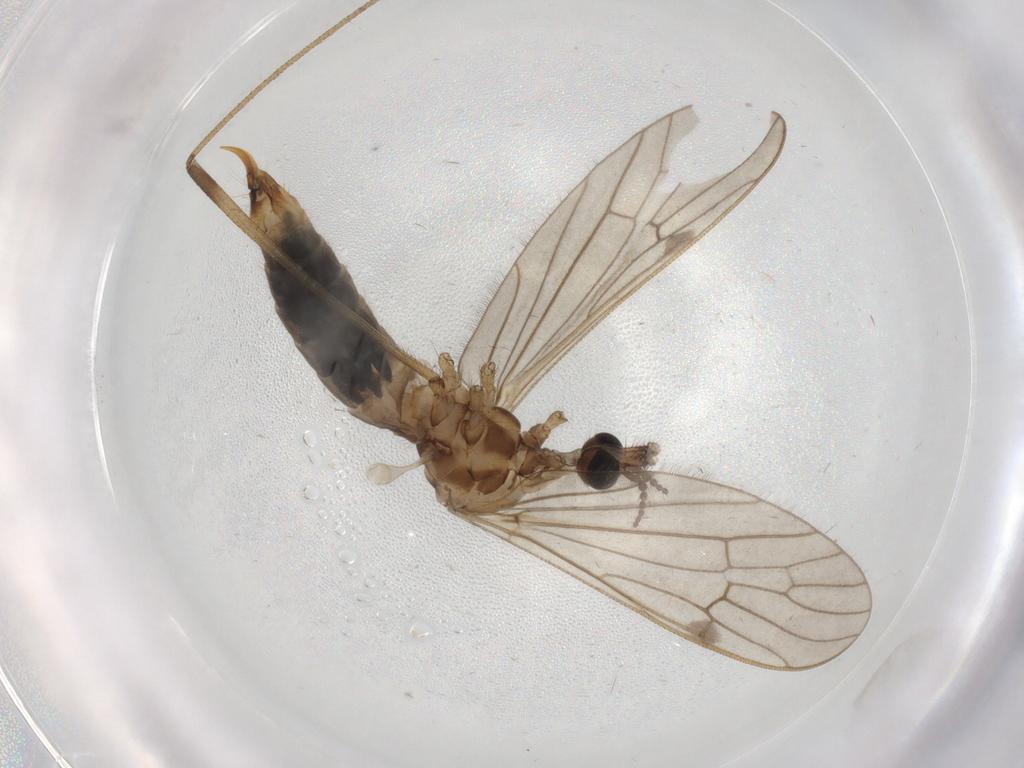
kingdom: Animalia
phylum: Arthropoda
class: Insecta
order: Diptera
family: Limoniidae
